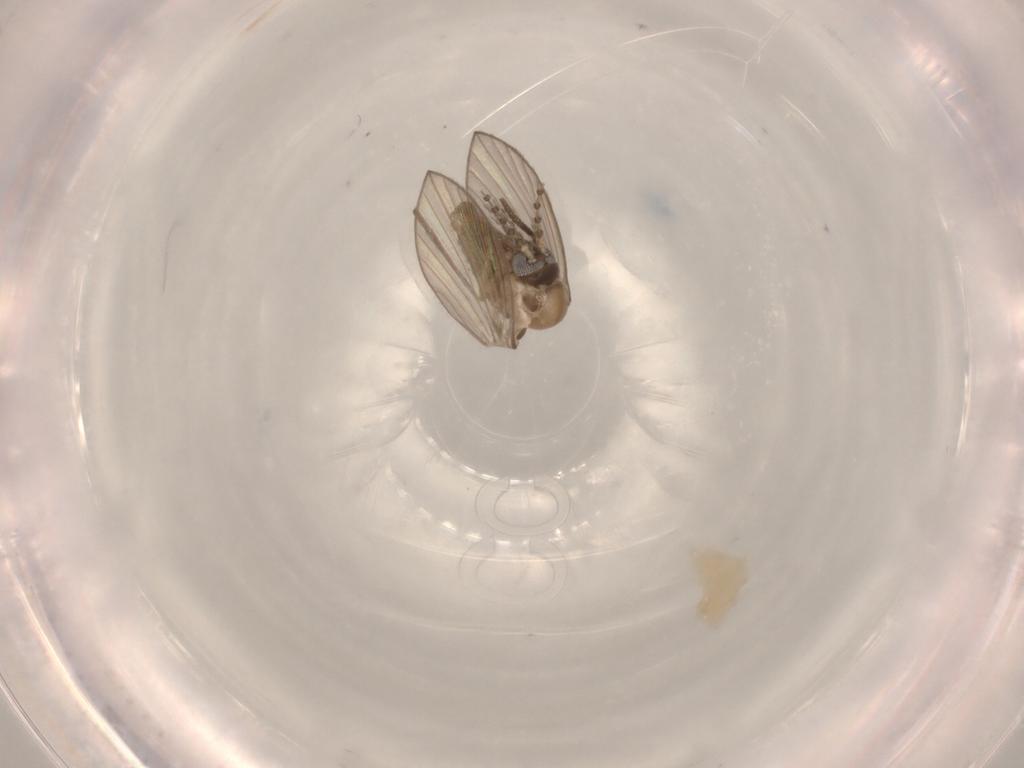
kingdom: Animalia
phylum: Arthropoda
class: Insecta
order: Diptera
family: Psychodidae
